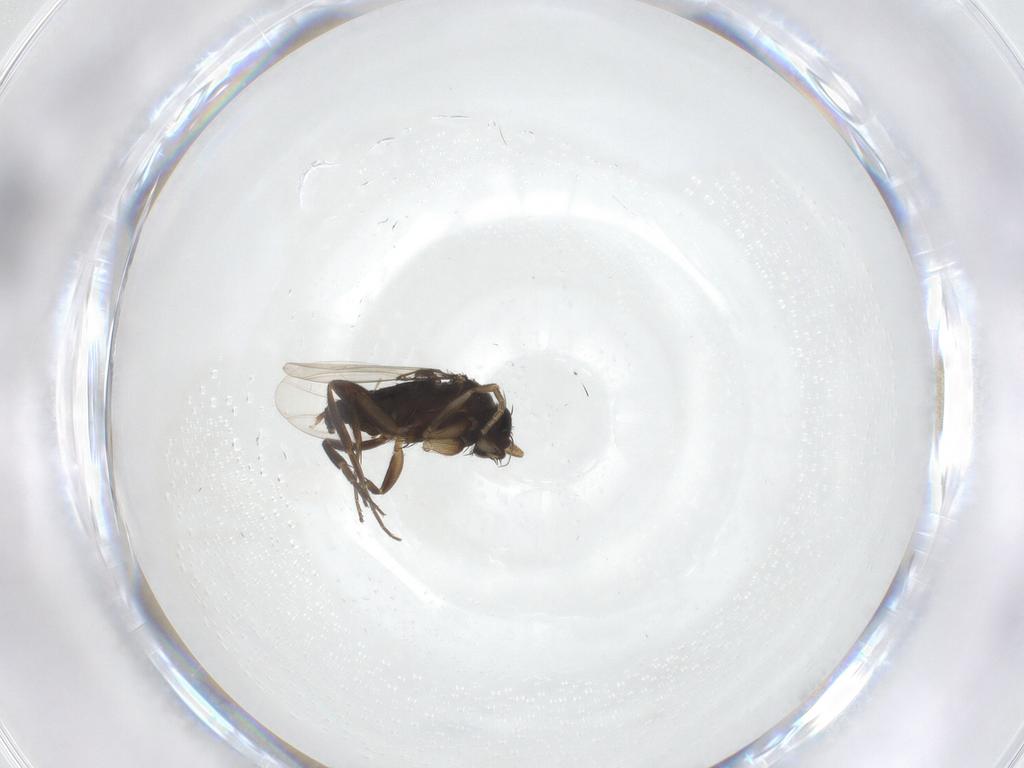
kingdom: Animalia
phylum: Arthropoda
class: Insecta
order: Diptera
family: Phoridae
